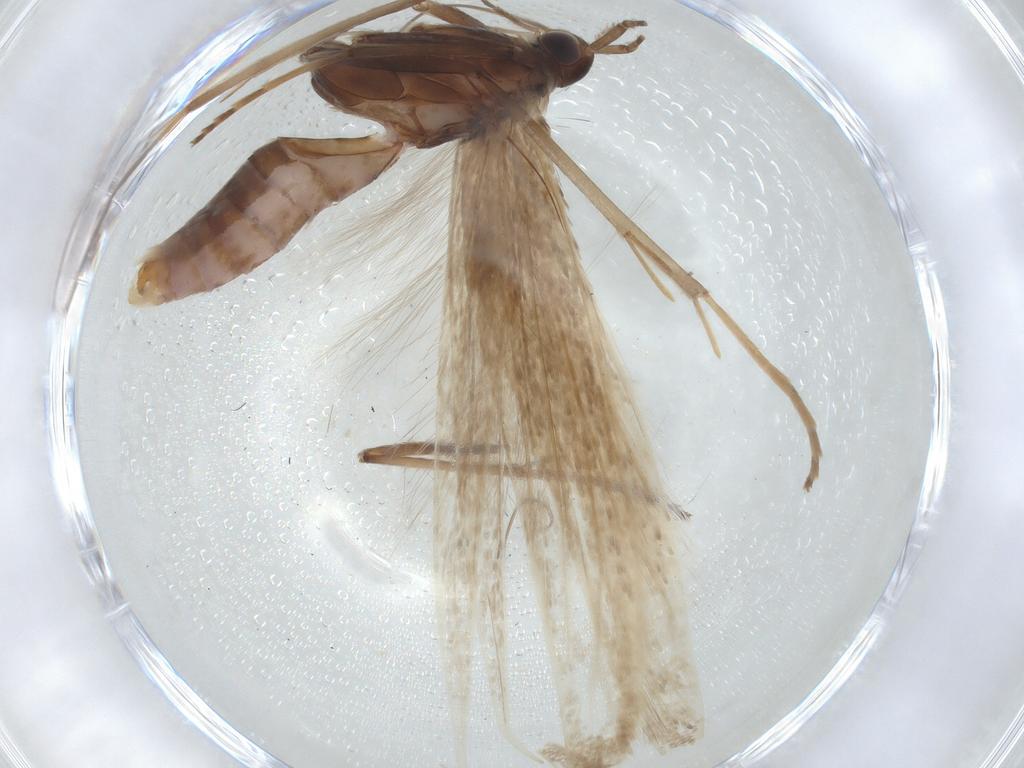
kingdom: Animalia
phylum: Arthropoda
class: Insecta
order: Lepidoptera
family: Coleophoridae
